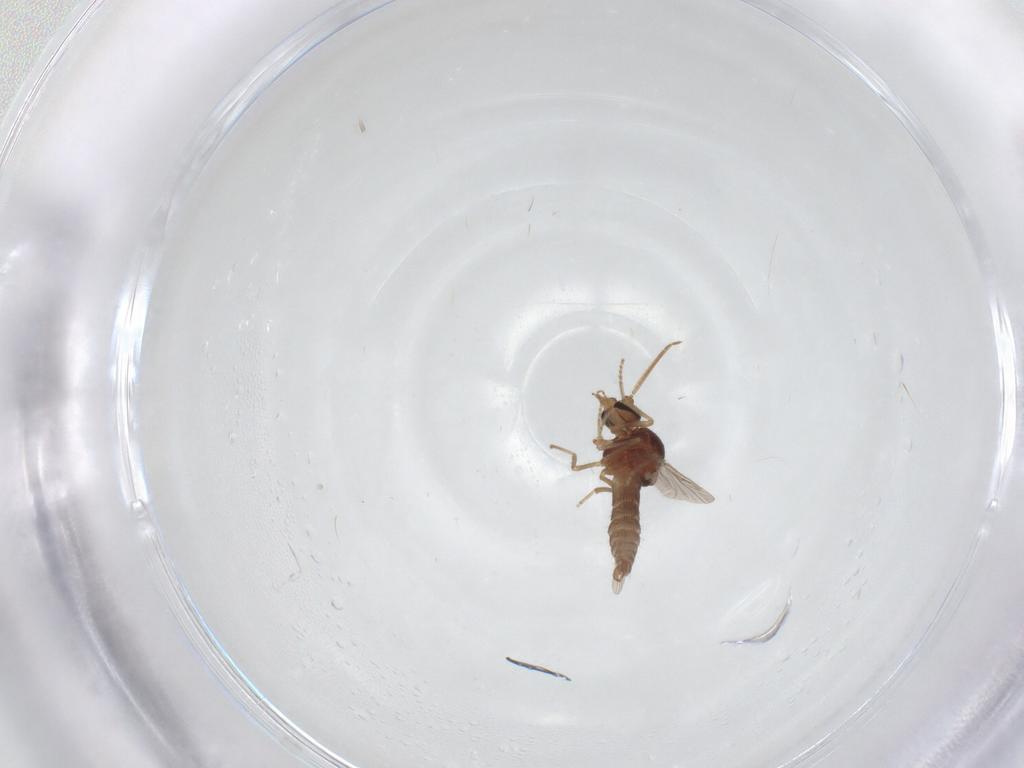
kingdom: Animalia
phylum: Arthropoda
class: Insecta
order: Diptera
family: Ceratopogonidae
